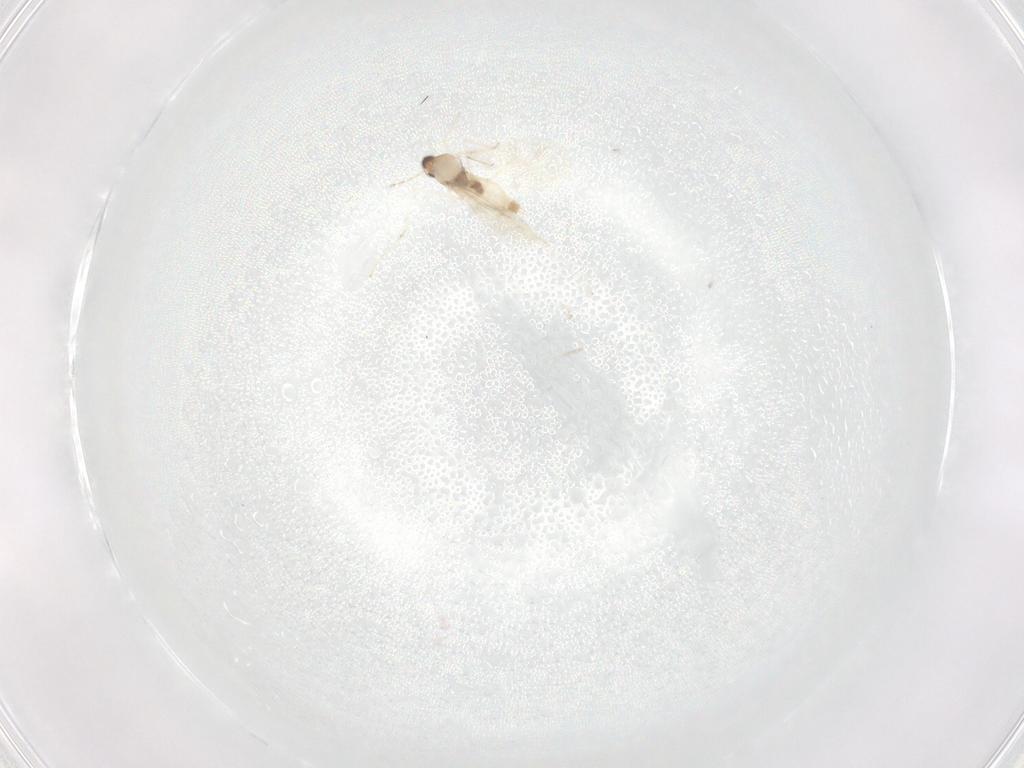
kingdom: Animalia
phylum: Arthropoda
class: Insecta
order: Diptera
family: Cecidomyiidae
